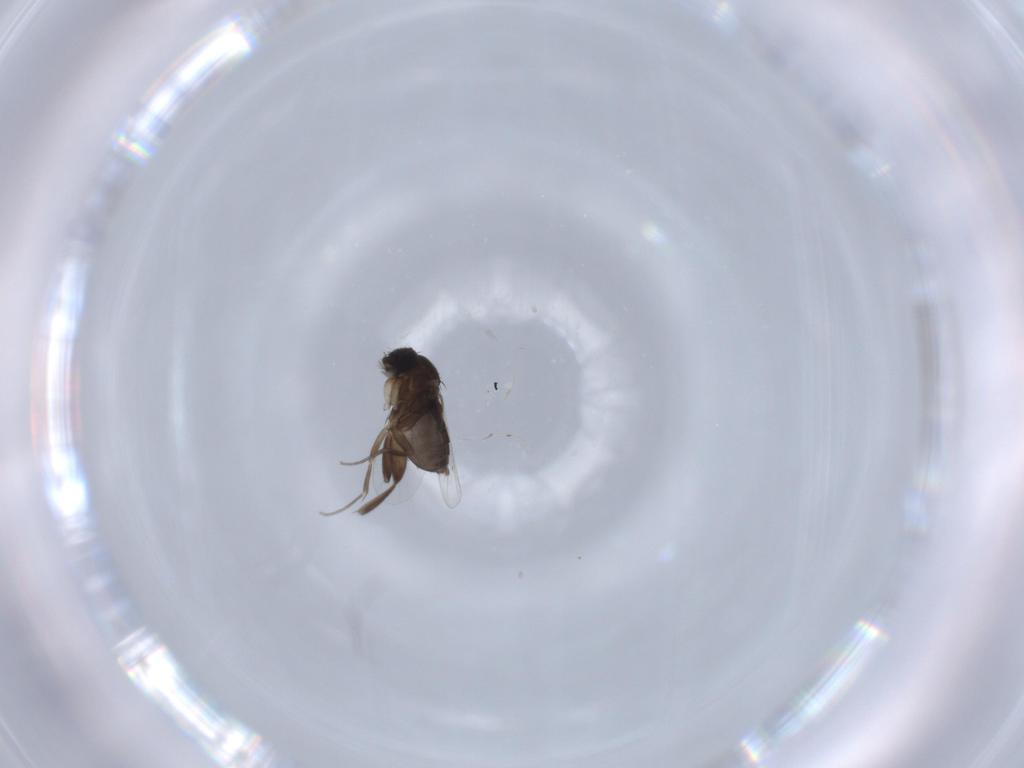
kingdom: Animalia
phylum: Arthropoda
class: Insecta
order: Diptera
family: Phoridae
